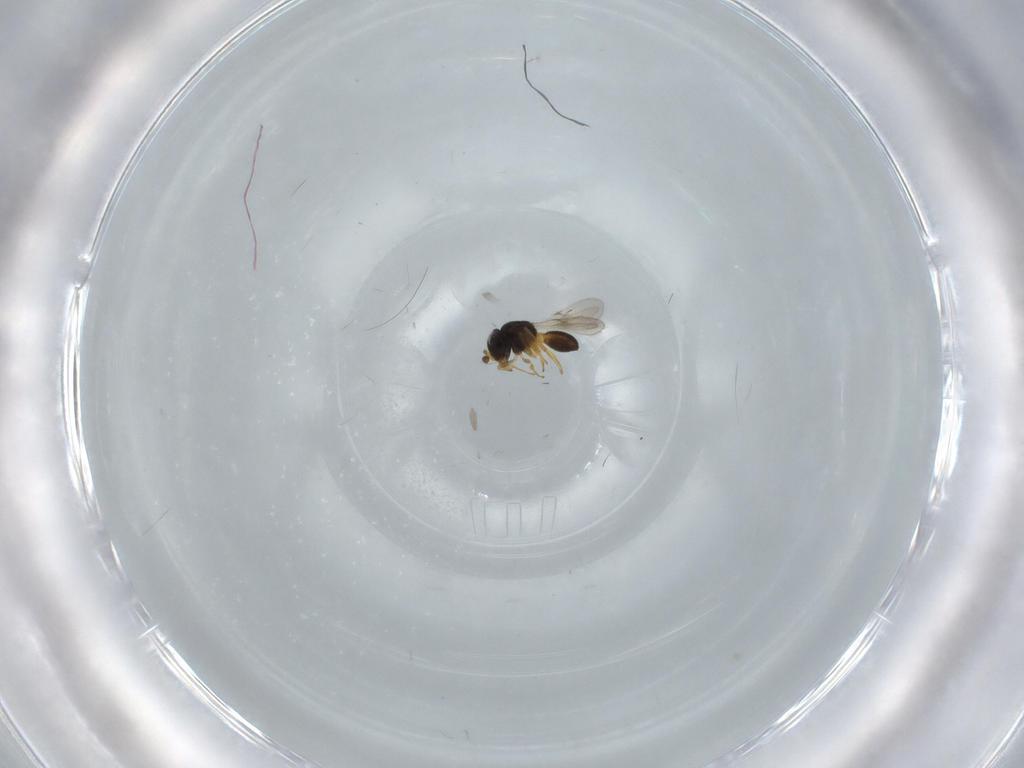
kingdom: Animalia
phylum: Arthropoda
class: Insecta
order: Hymenoptera
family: Scelionidae
